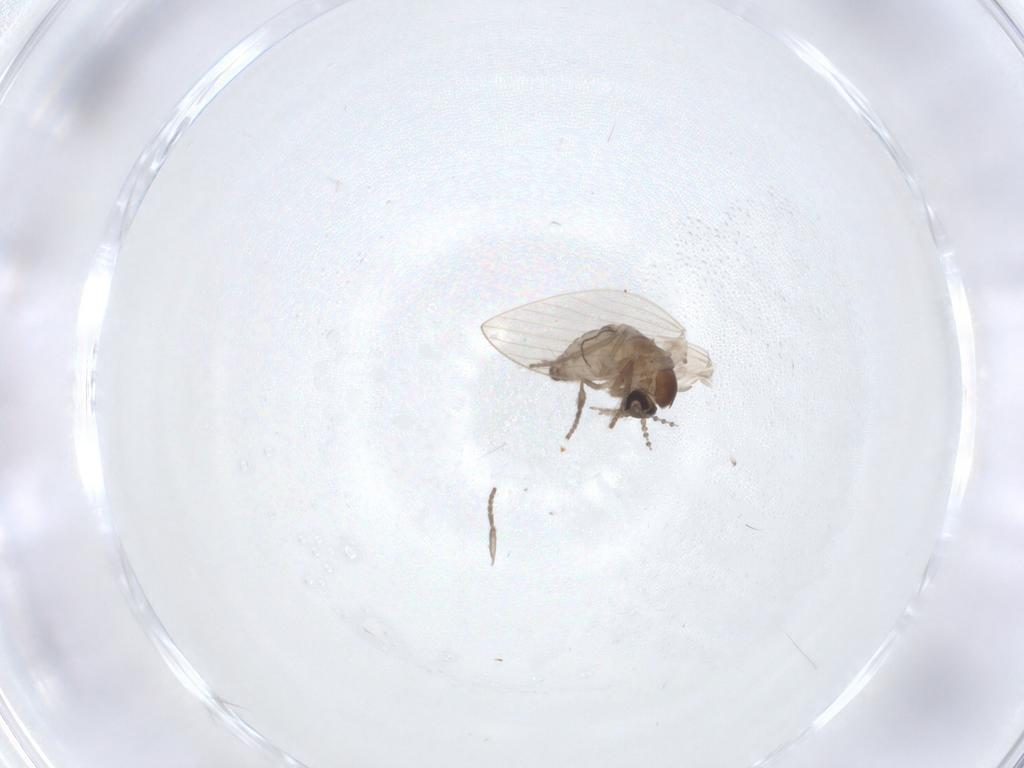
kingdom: Animalia
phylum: Arthropoda
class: Insecta
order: Diptera
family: Psychodidae
